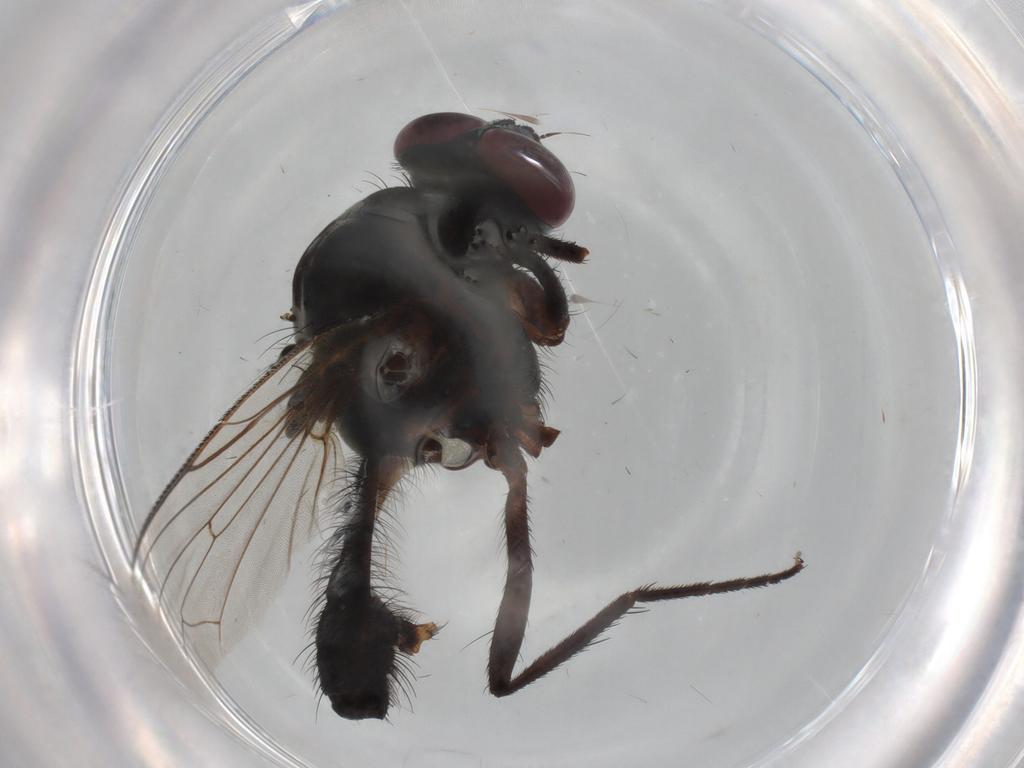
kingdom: Animalia
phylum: Arthropoda
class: Insecta
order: Diptera
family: Anthomyiidae
